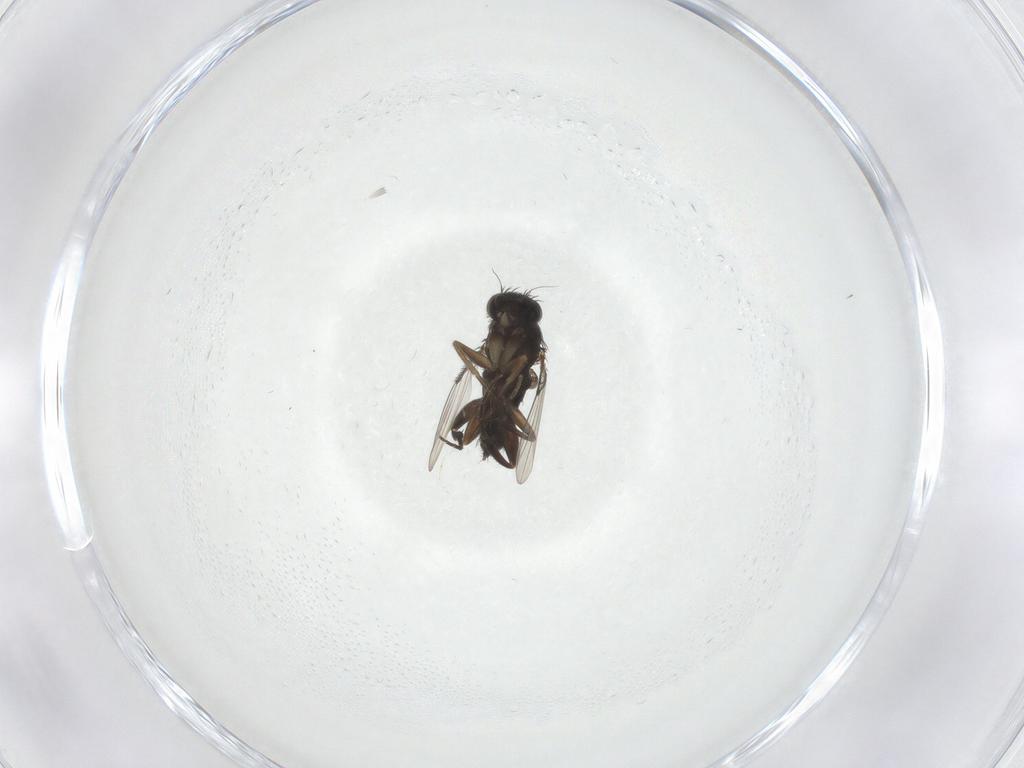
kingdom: Animalia
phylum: Arthropoda
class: Insecta
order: Diptera
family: Phoridae
